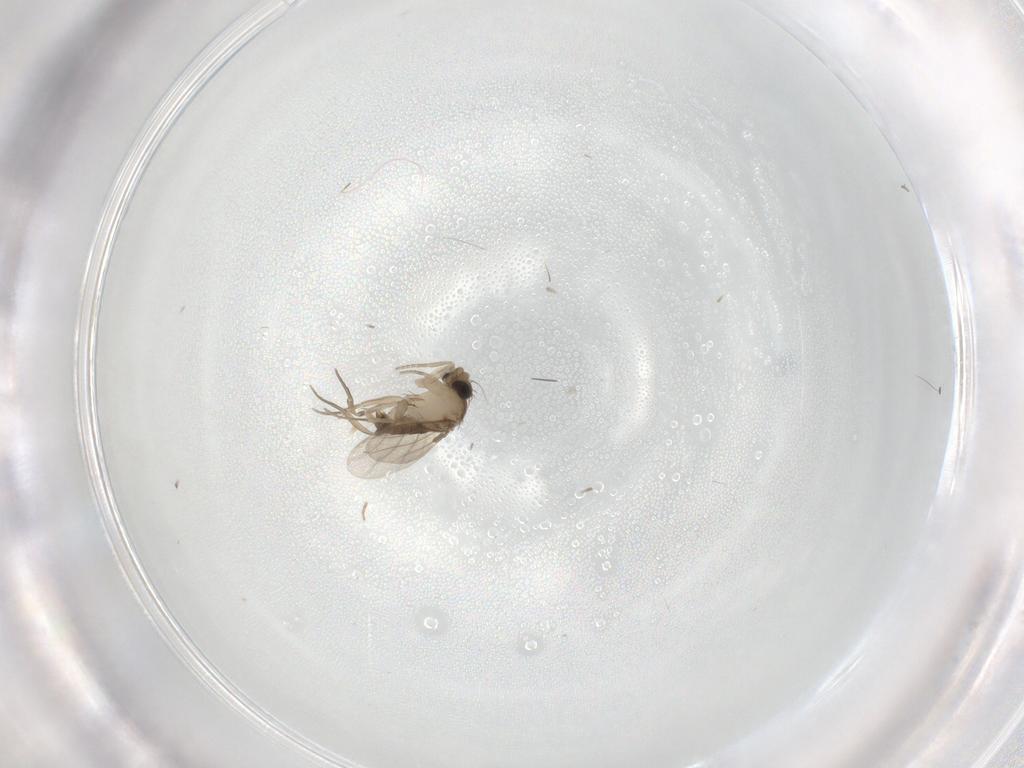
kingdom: Animalia
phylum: Arthropoda
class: Insecta
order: Diptera
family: Phoridae
